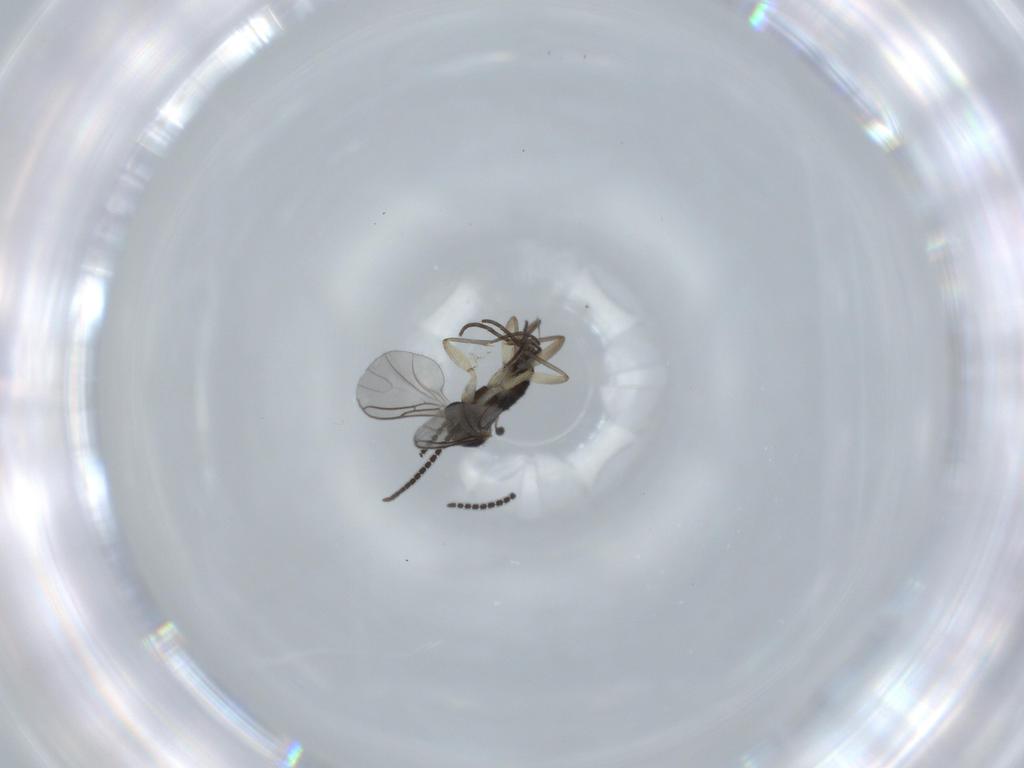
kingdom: Animalia
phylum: Arthropoda
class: Insecta
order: Diptera
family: Sciaridae
